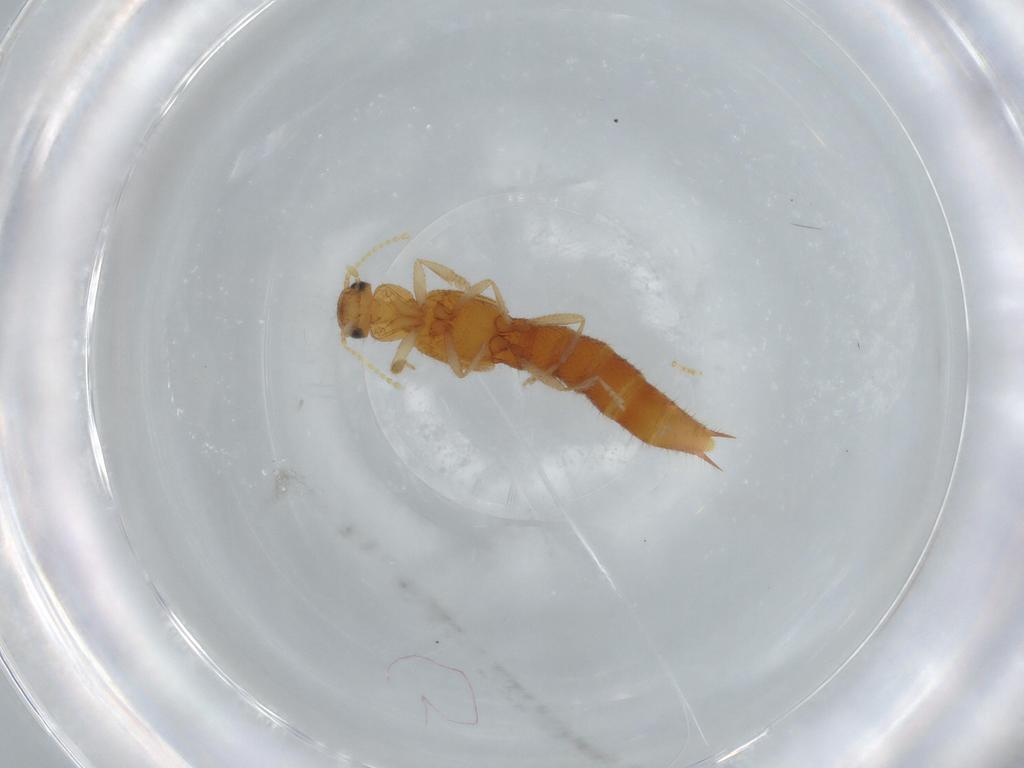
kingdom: Animalia
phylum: Arthropoda
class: Insecta
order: Coleoptera
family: Staphylinidae
